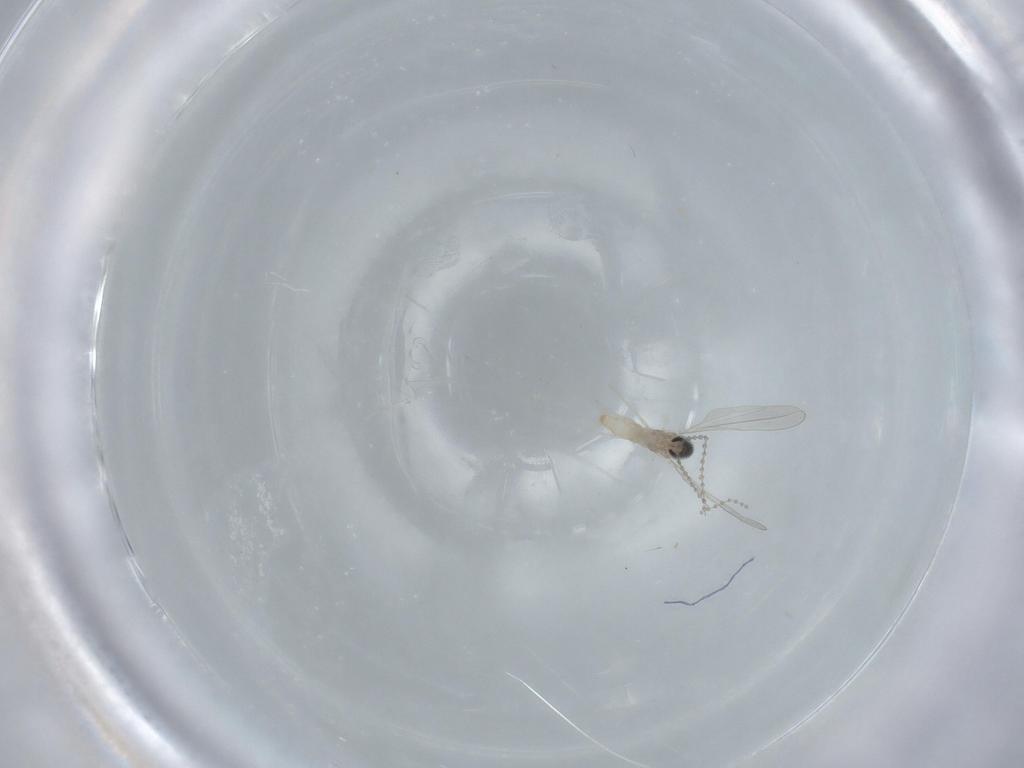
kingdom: Animalia
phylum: Arthropoda
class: Insecta
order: Diptera
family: Cecidomyiidae
